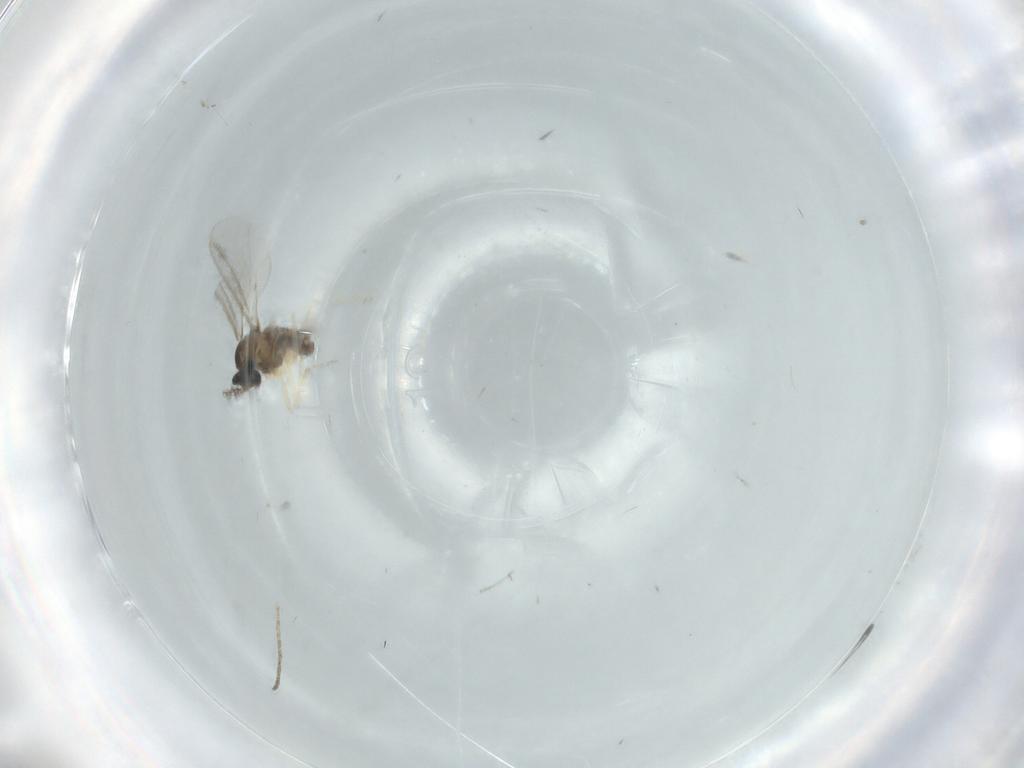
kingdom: Animalia
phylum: Arthropoda
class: Insecta
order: Diptera
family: Cecidomyiidae
